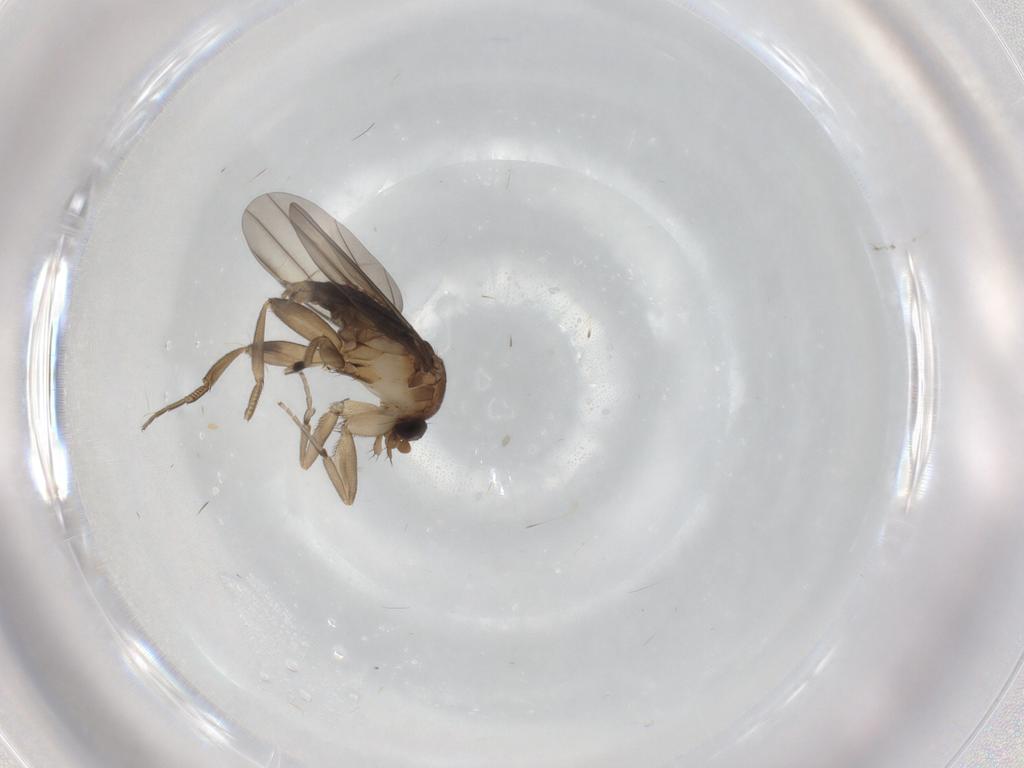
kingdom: Animalia
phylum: Arthropoda
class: Insecta
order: Diptera
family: Phoridae
